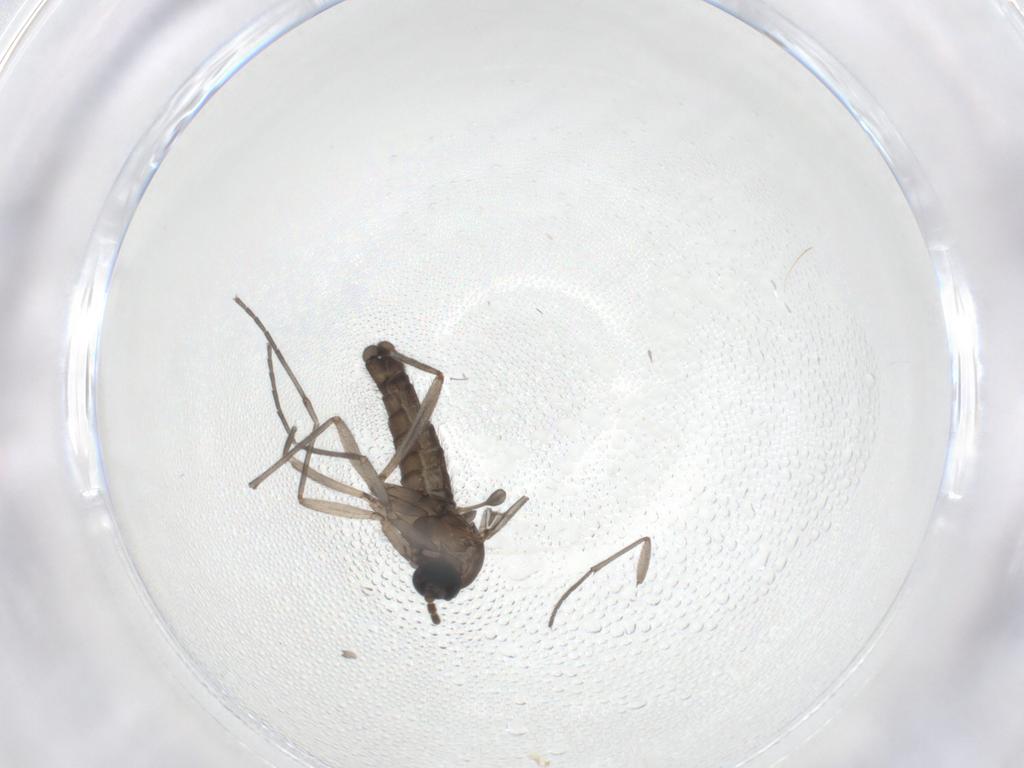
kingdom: Animalia
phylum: Arthropoda
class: Insecta
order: Diptera
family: Sciaridae
